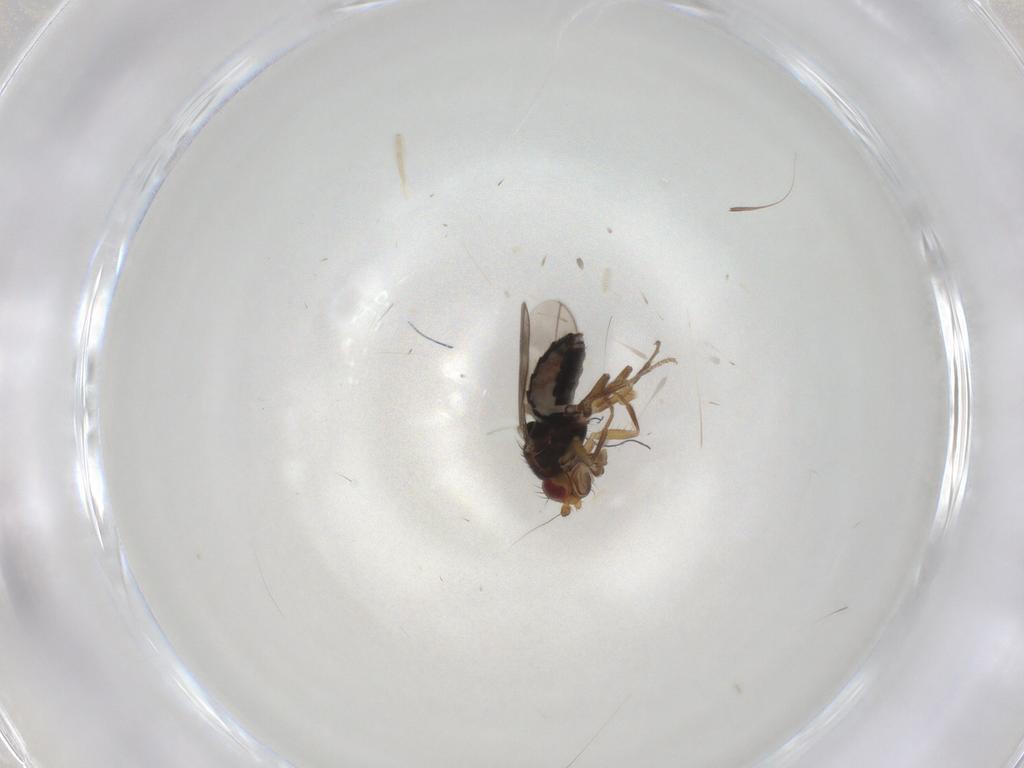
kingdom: Animalia
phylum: Arthropoda
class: Insecta
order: Diptera
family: Sphaeroceridae
